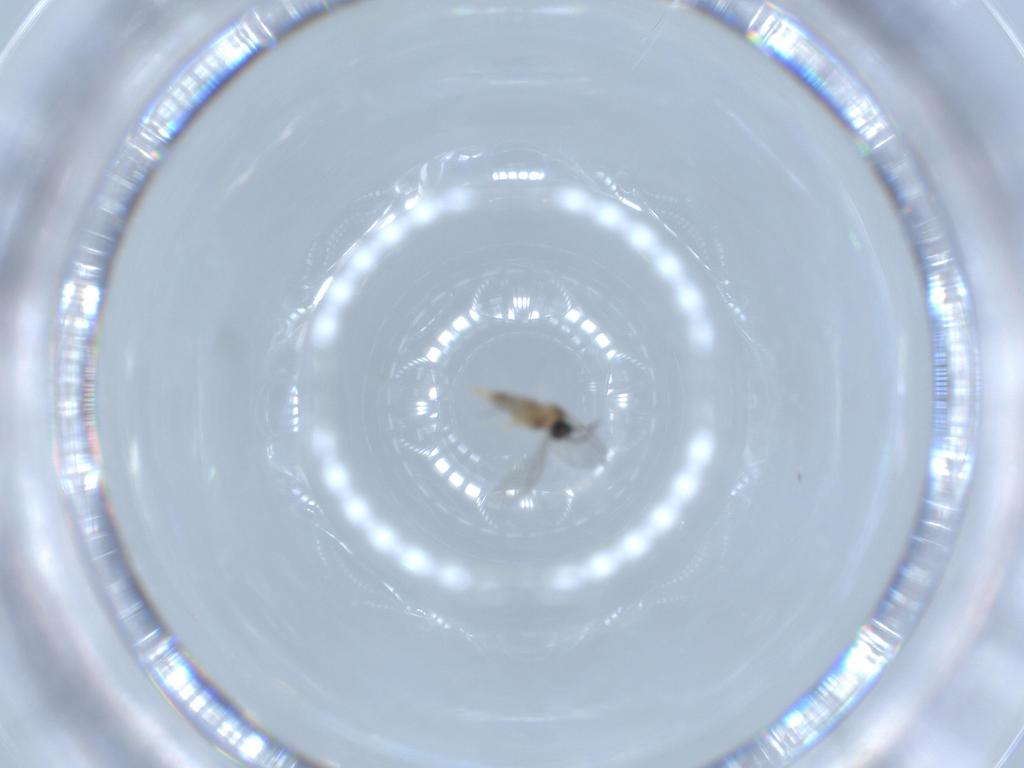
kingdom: Animalia
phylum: Arthropoda
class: Insecta
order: Diptera
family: Cecidomyiidae
